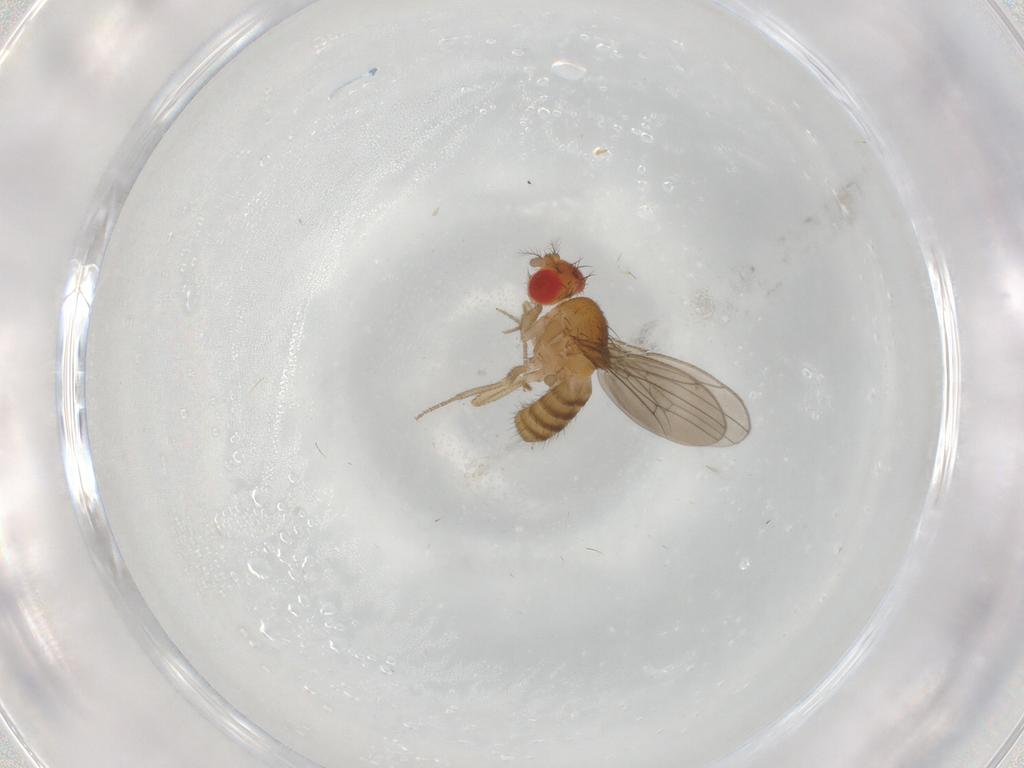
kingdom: Animalia
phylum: Arthropoda
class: Insecta
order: Diptera
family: Drosophilidae
